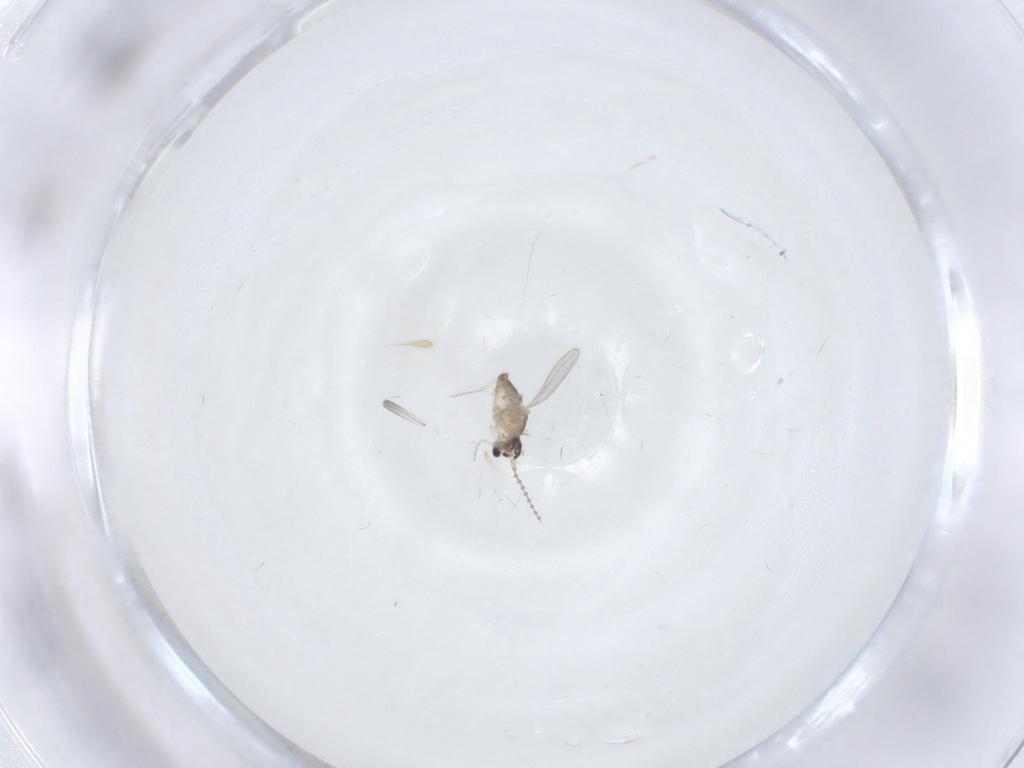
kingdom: Animalia
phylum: Arthropoda
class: Insecta
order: Diptera
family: Cecidomyiidae
